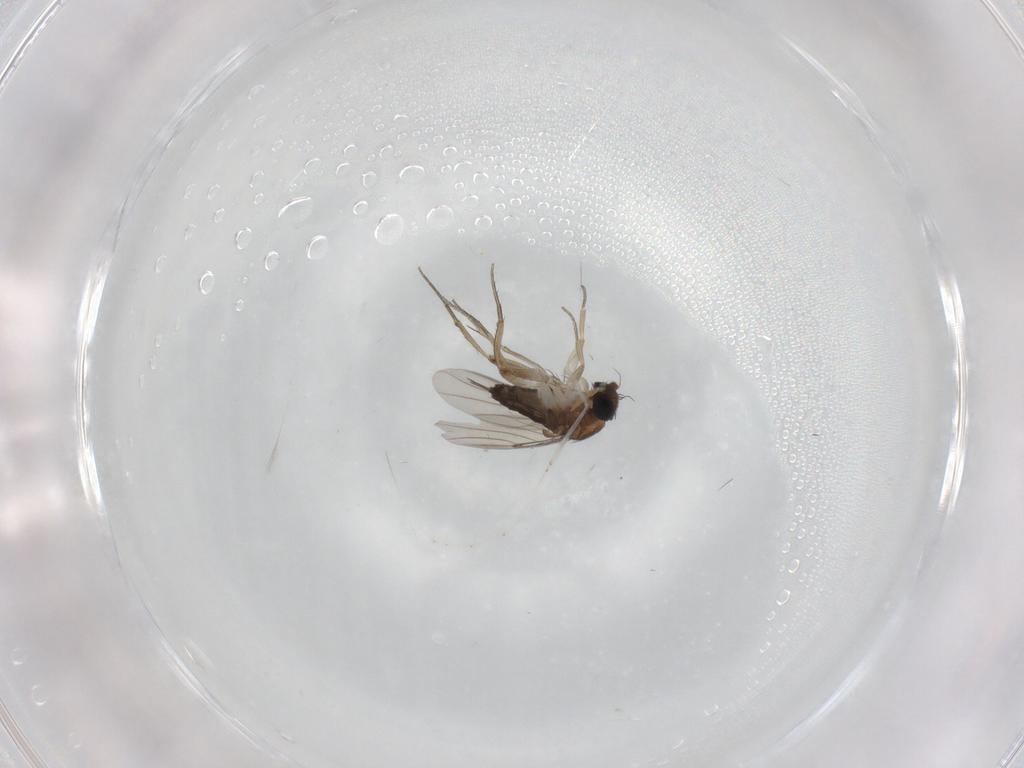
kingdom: Animalia
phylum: Arthropoda
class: Insecta
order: Diptera
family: Phoridae
